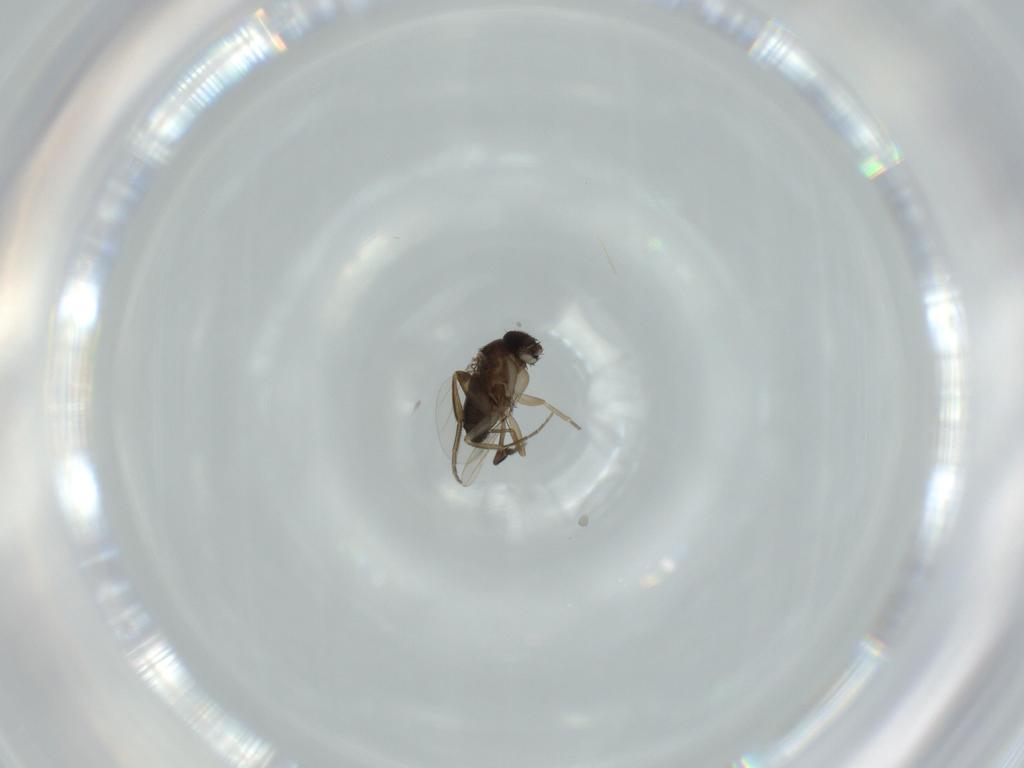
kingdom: Animalia
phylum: Arthropoda
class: Insecta
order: Diptera
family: Phoridae
